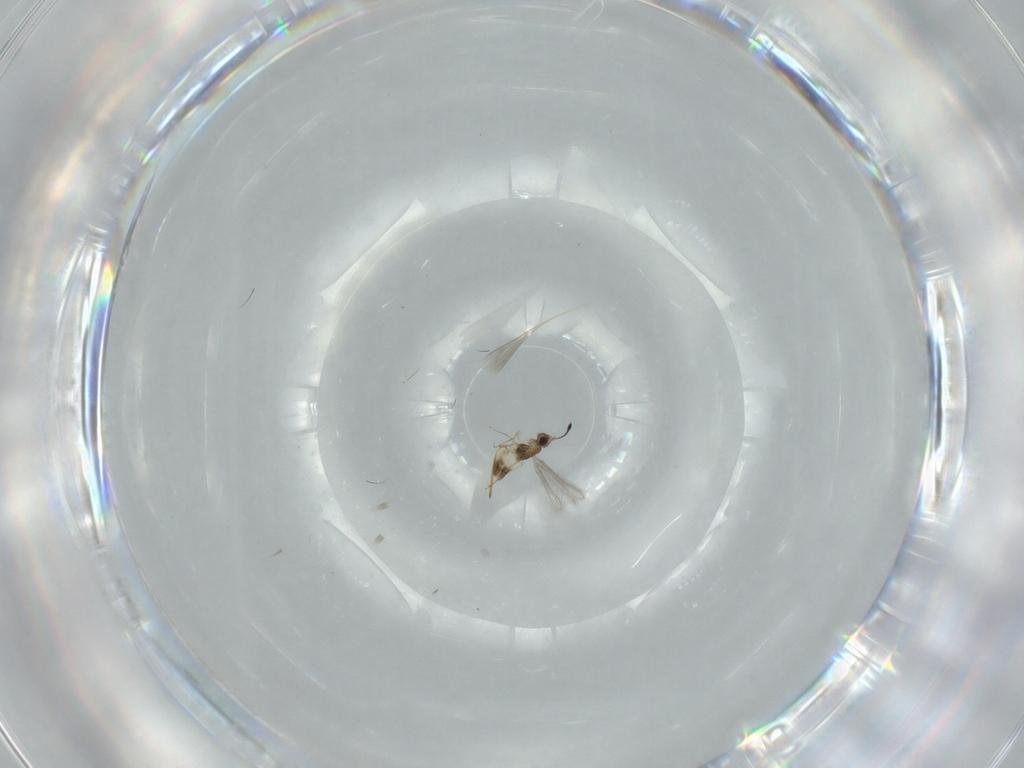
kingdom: Animalia
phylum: Arthropoda
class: Insecta
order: Hymenoptera
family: Mymaridae
